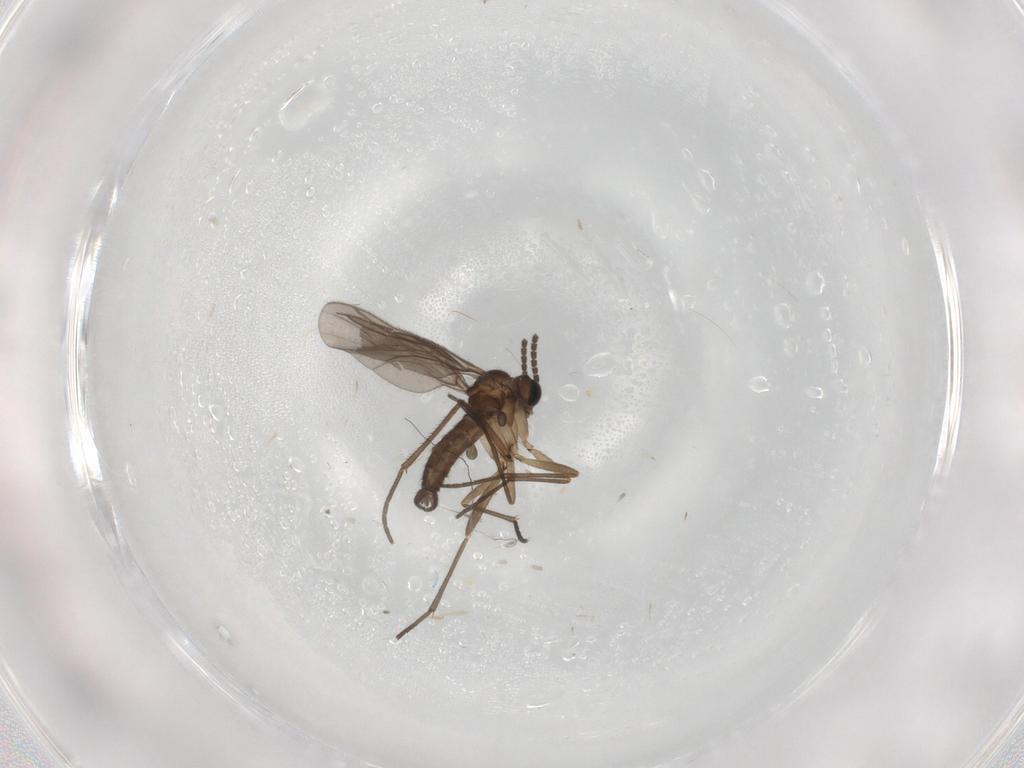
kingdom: Animalia
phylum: Arthropoda
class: Insecta
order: Diptera
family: Sciaridae
